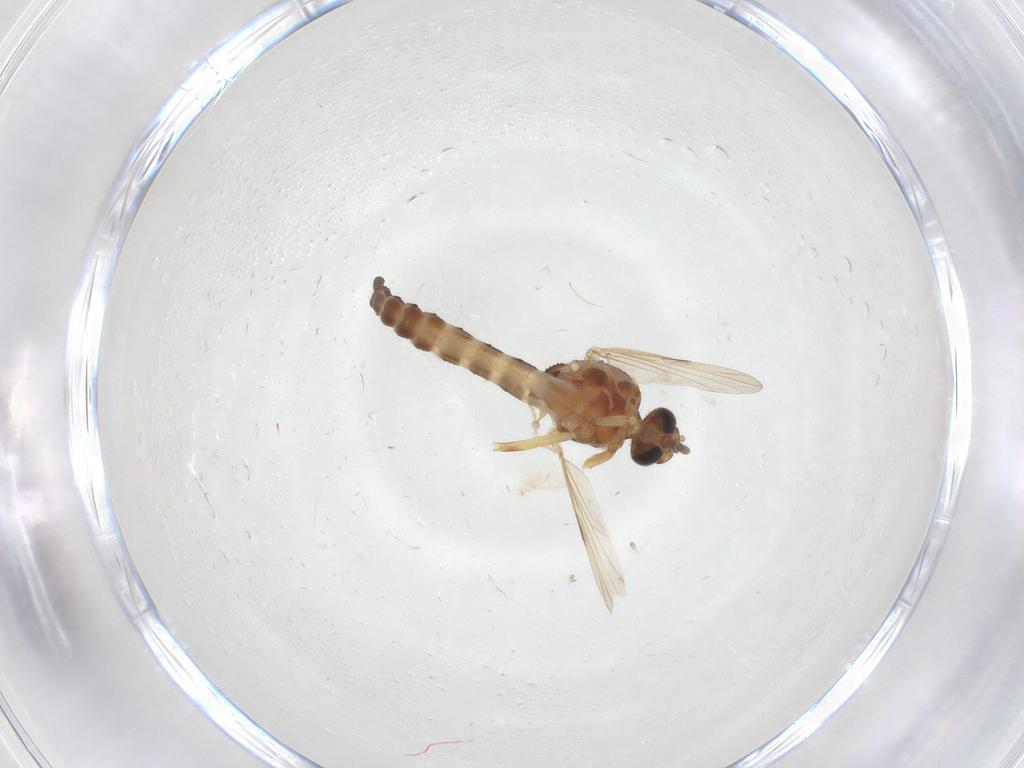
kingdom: Animalia
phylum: Arthropoda
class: Insecta
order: Diptera
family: Ceratopogonidae
